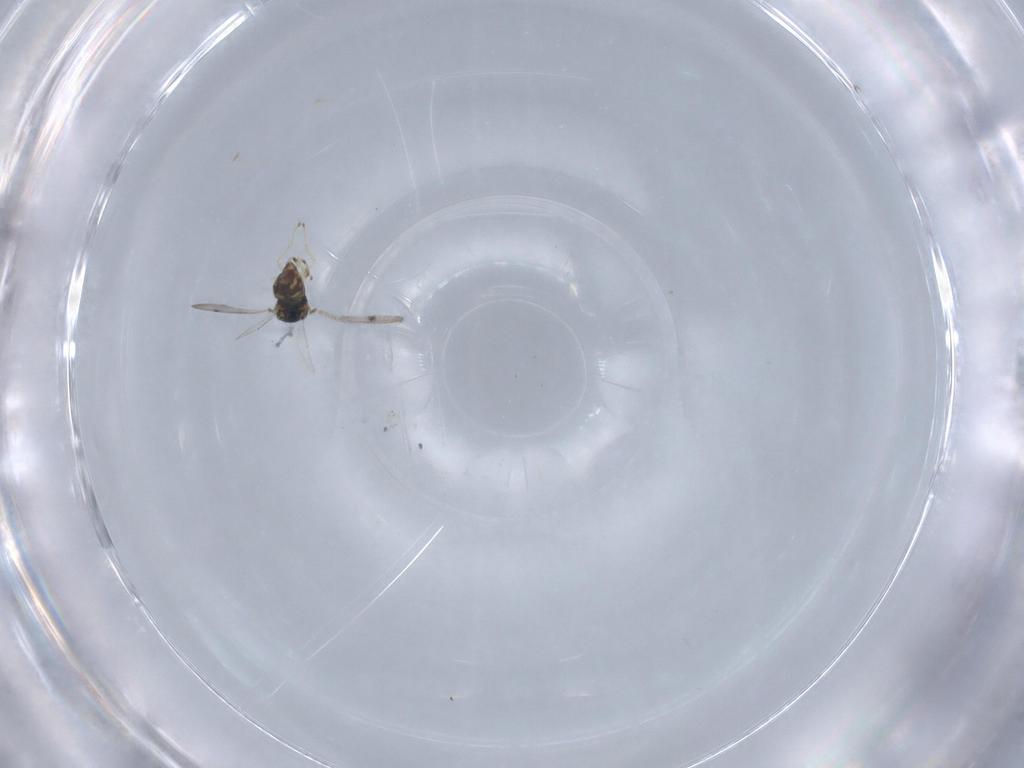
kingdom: Animalia
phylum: Arthropoda
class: Insecta
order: Hymenoptera
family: Eulophidae
